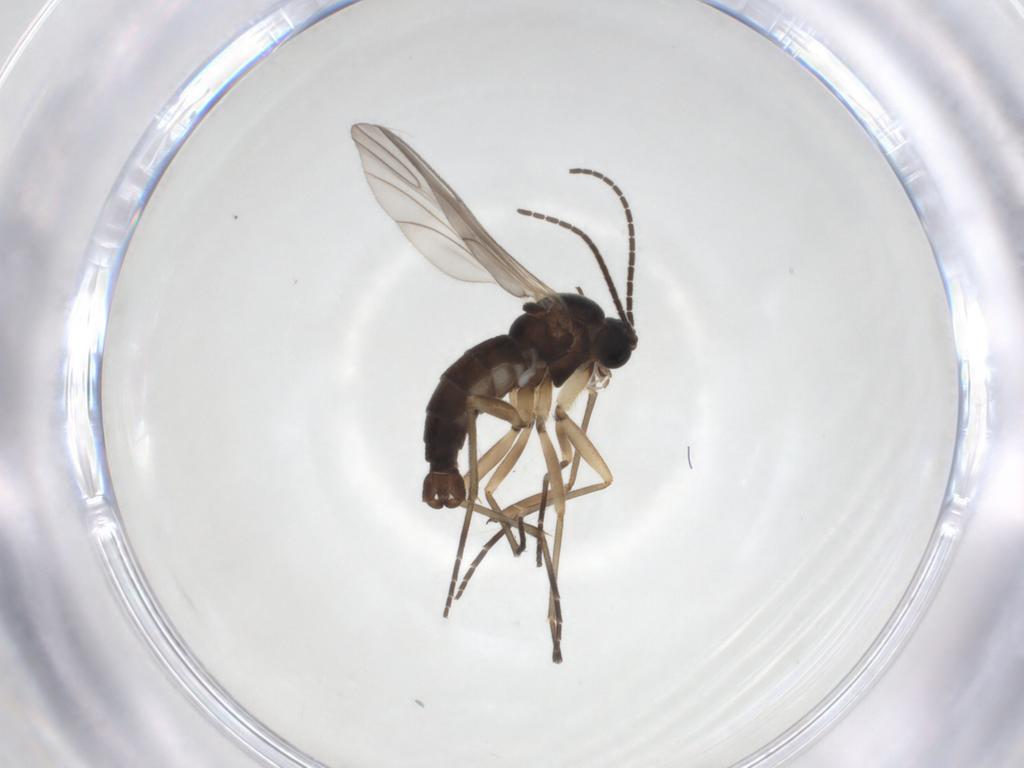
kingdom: Animalia
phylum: Arthropoda
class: Insecta
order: Diptera
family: Sciaridae
